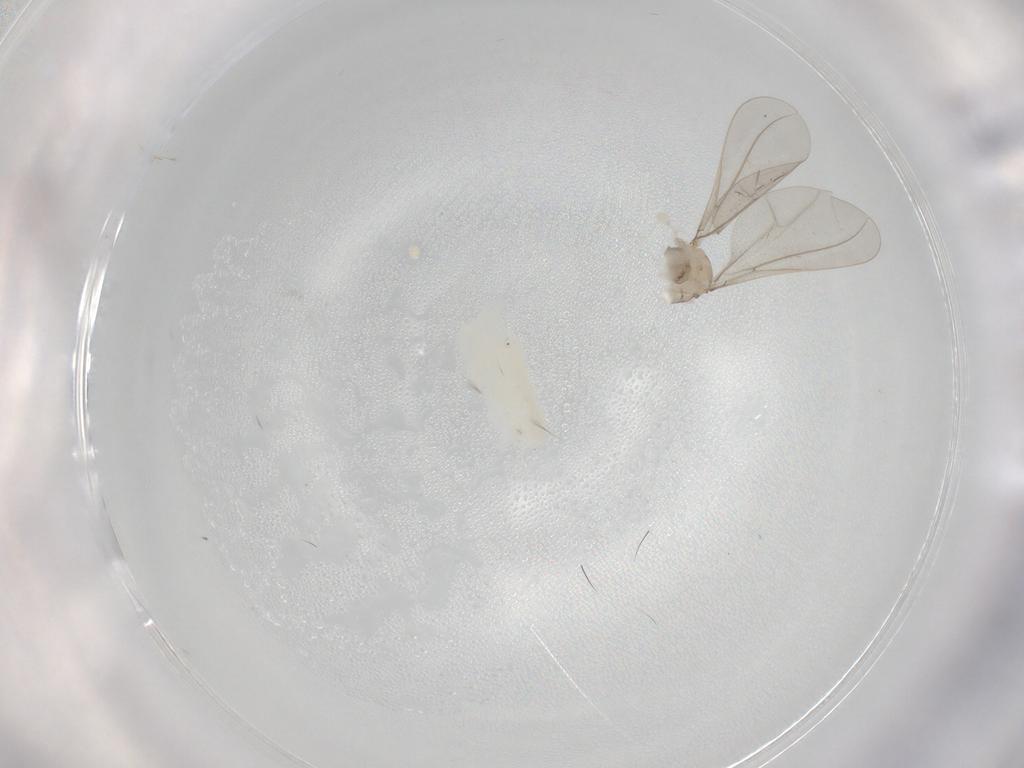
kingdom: Animalia
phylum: Arthropoda
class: Insecta
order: Diptera
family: Cecidomyiidae
